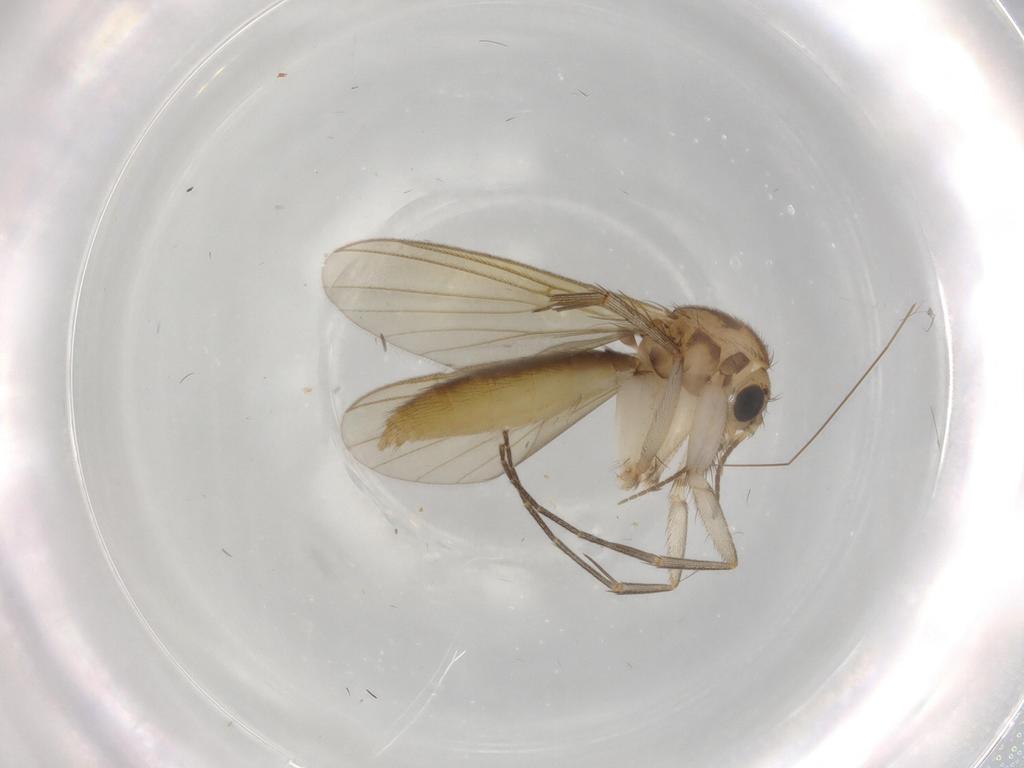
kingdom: Animalia
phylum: Arthropoda
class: Insecta
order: Diptera
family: Mycetophilidae
